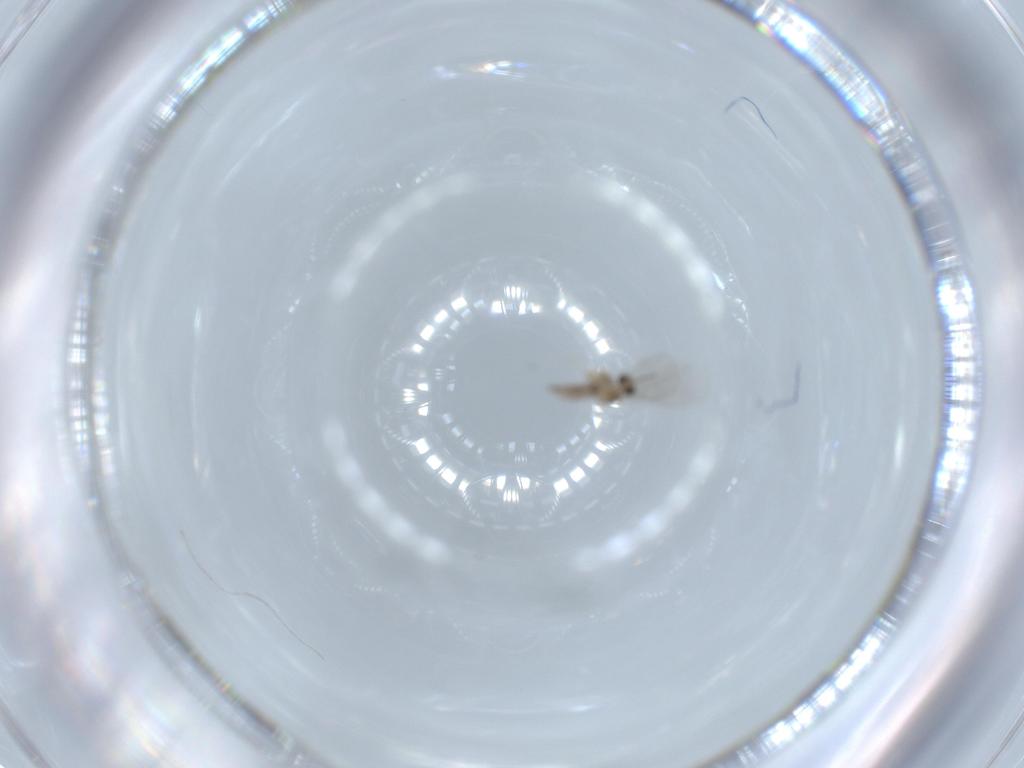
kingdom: Animalia
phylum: Arthropoda
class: Insecta
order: Diptera
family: Cecidomyiidae
